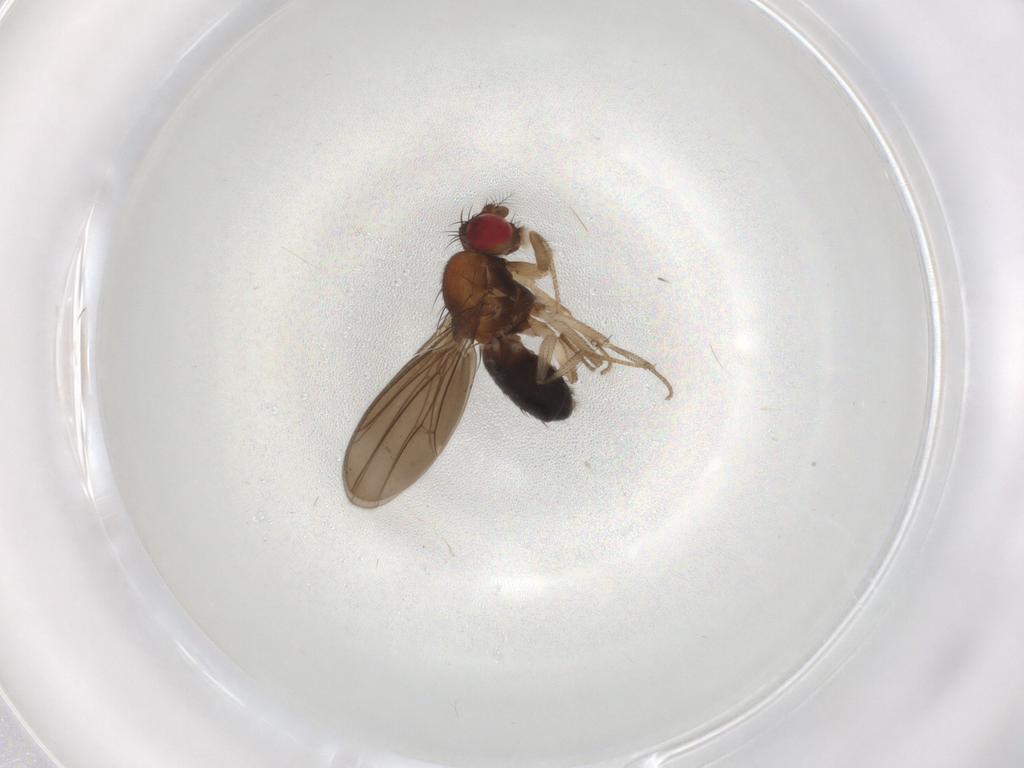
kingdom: Animalia
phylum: Arthropoda
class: Insecta
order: Diptera
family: Drosophilidae
